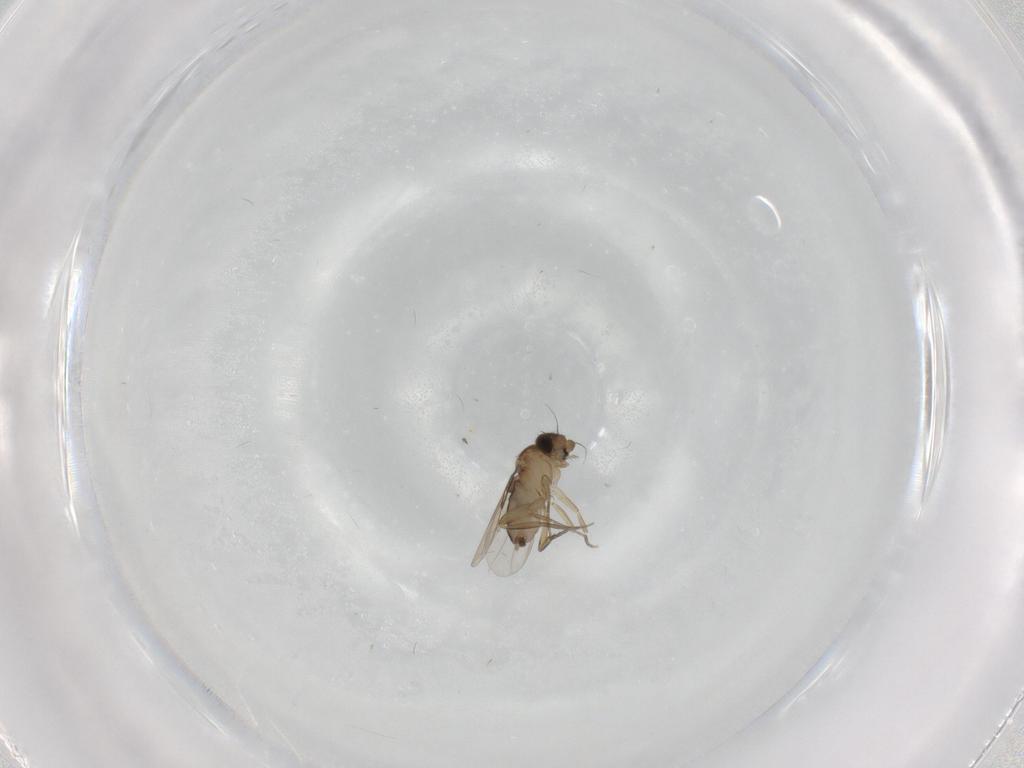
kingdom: Animalia
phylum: Arthropoda
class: Insecta
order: Diptera
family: Phoridae
